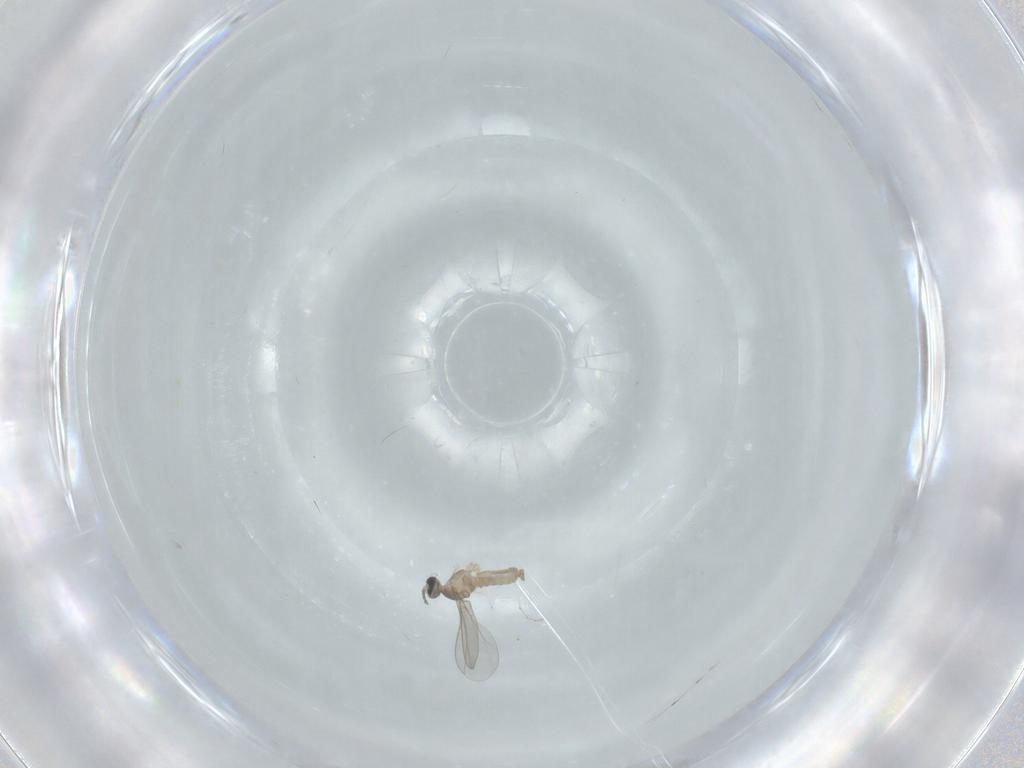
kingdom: Animalia
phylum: Arthropoda
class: Insecta
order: Diptera
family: Cecidomyiidae
